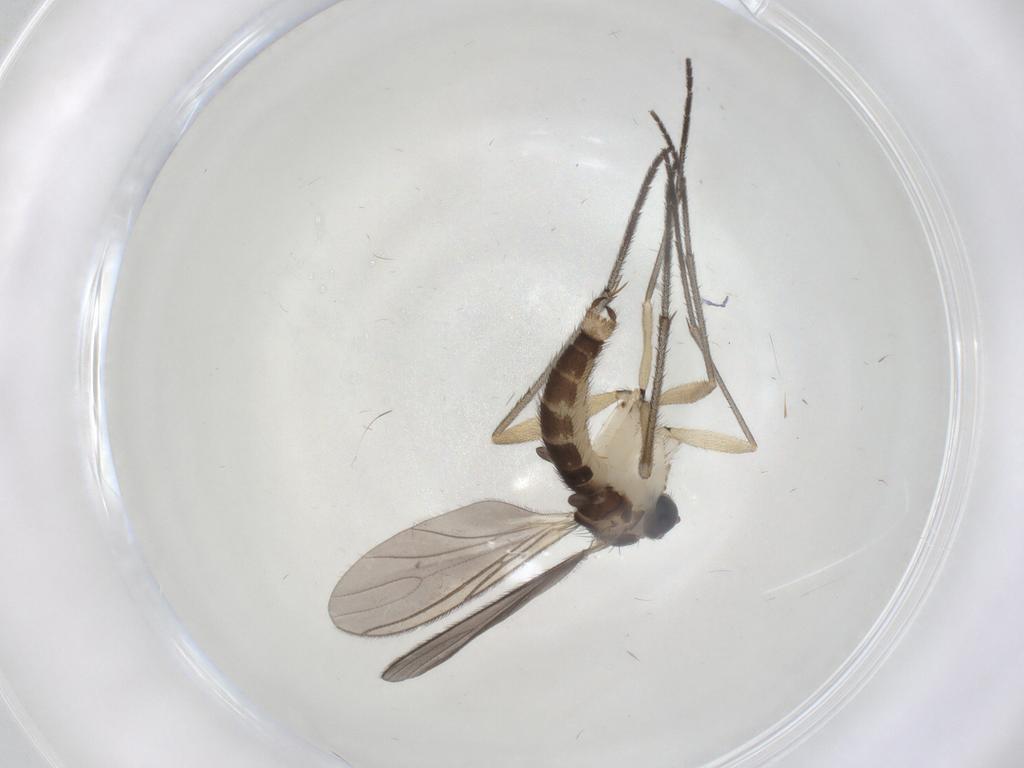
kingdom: Animalia
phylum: Arthropoda
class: Insecta
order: Diptera
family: Sciaridae
